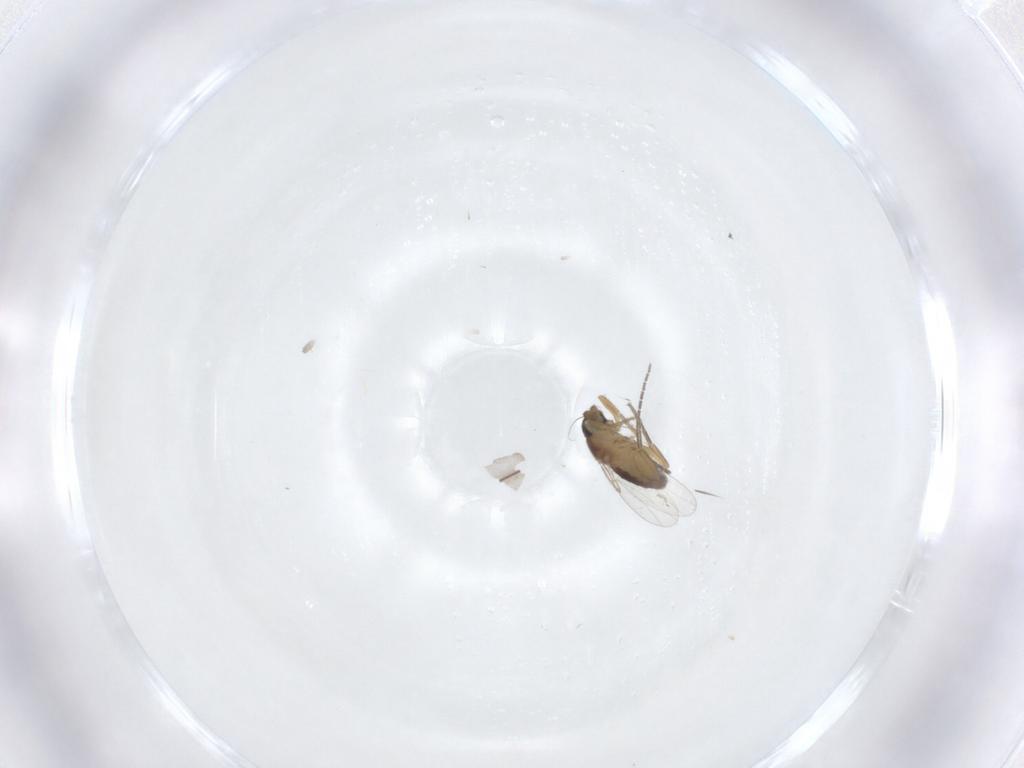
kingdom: Animalia
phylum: Arthropoda
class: Insecta
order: Diptera
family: Sciaridae
